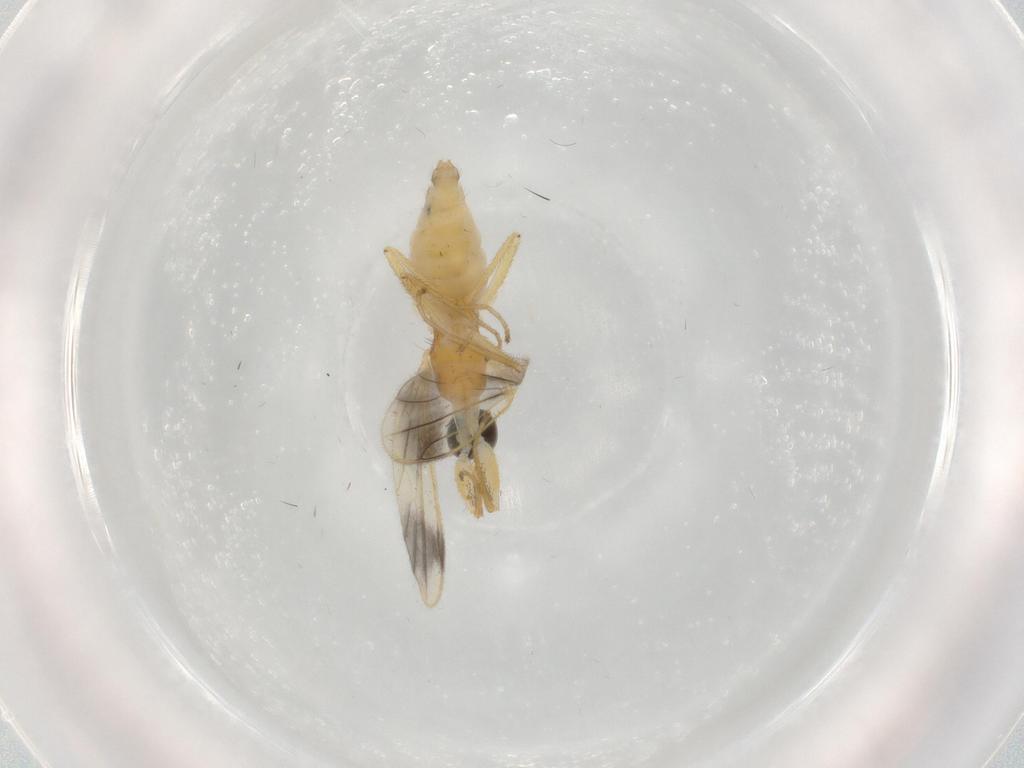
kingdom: Animalia
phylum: Arthropoda
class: Insecta
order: Diptera
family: Empididae
